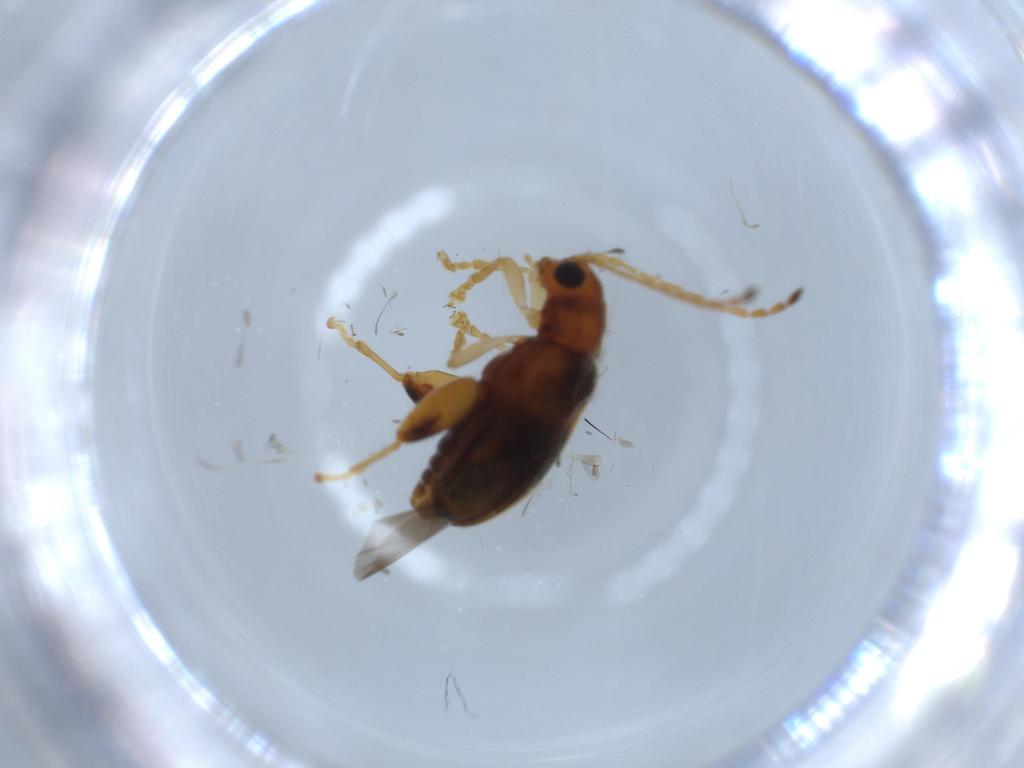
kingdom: Animalia
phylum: Arthropoda
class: Insecta
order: Coleoptera
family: Chrysomelidae
